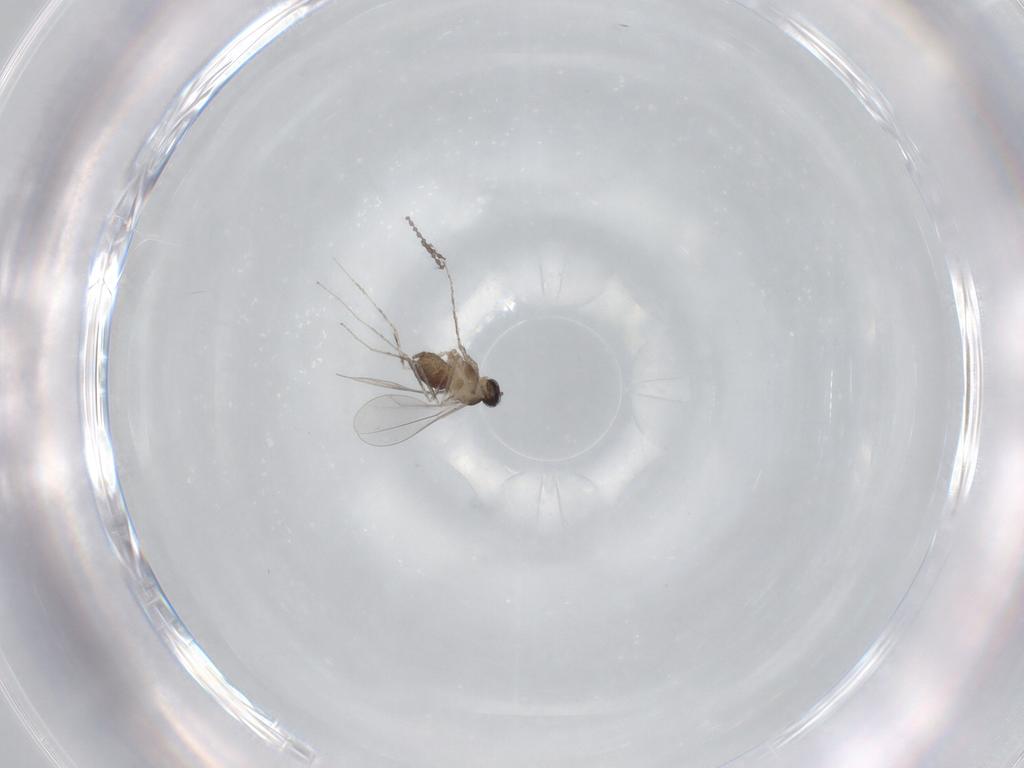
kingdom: Animalia
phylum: Arthropoda
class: Insecta
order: Diptera
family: Cecidomyiidae
